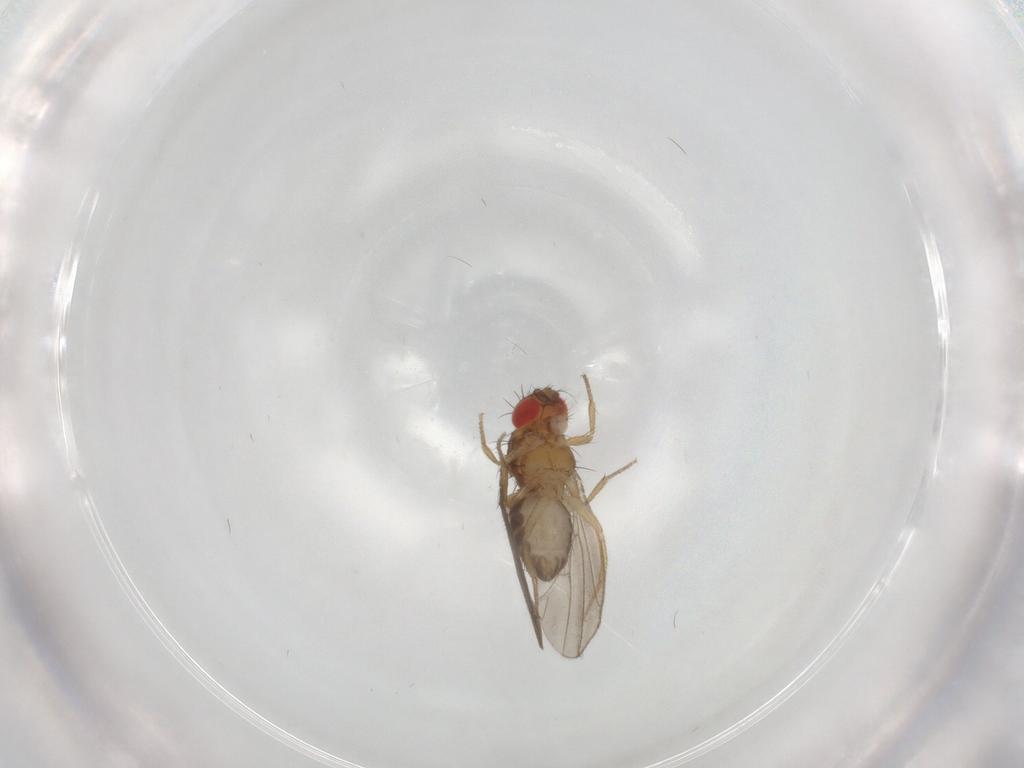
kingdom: Animalia
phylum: Arthropoda
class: Insecta
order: Diptera
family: Drosophilidae
